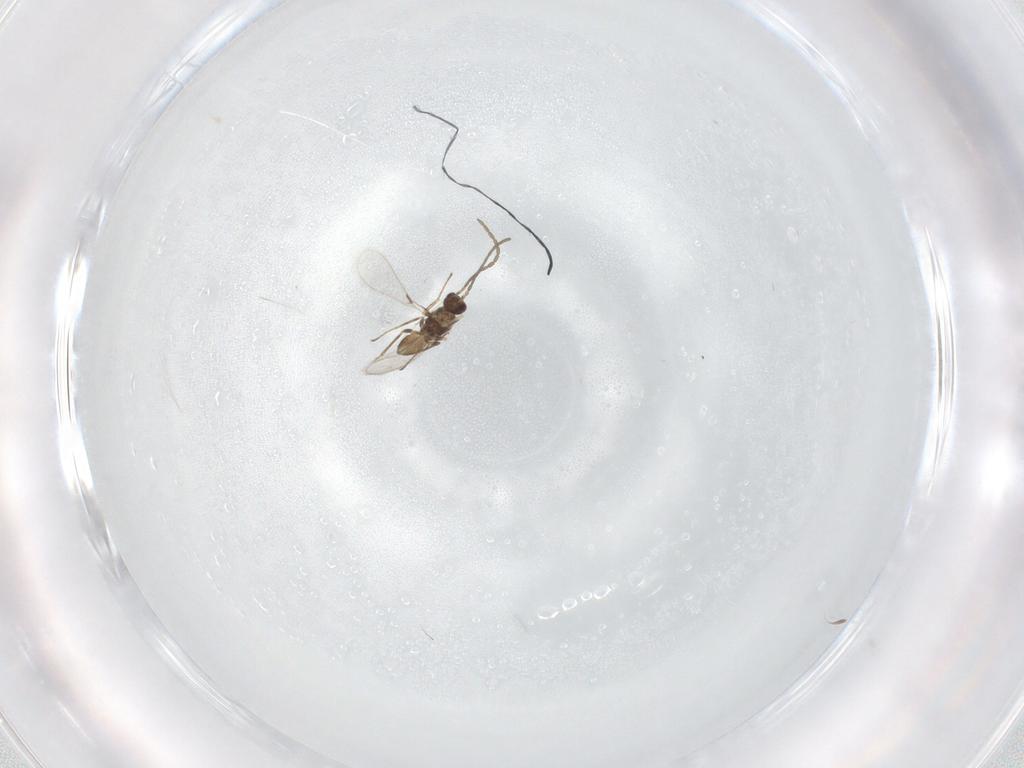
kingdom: Animalia
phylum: Arthropoda
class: Insecta
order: Hymenoptera
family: Mymaridae
